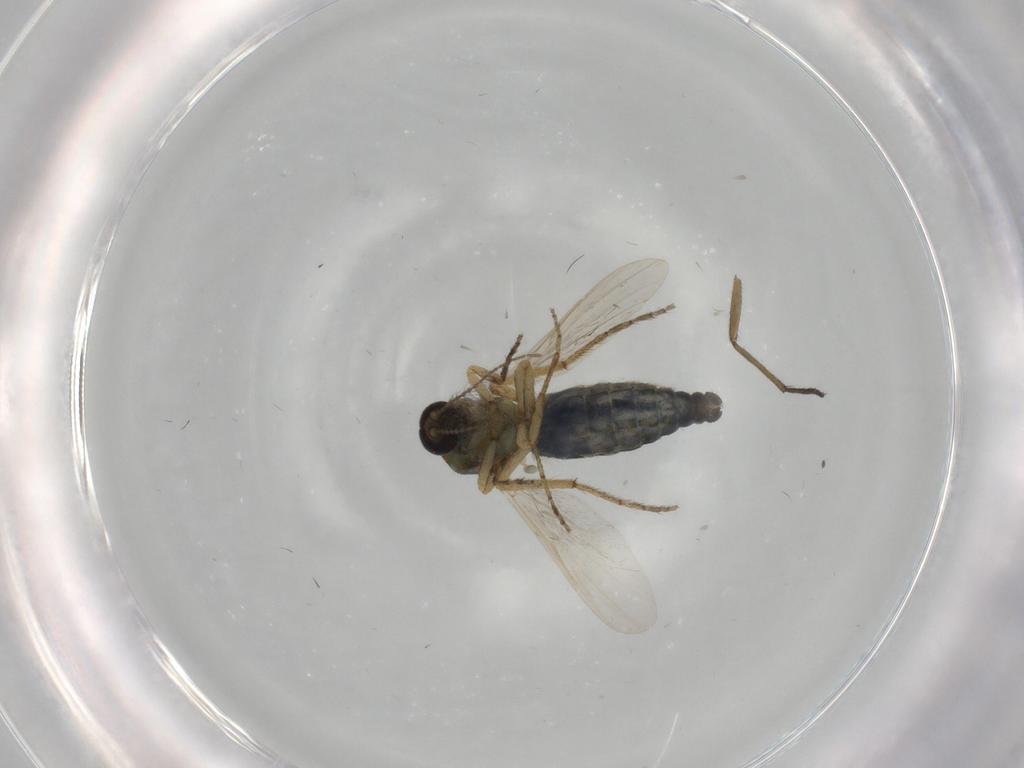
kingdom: Animalia
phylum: Arthropoda
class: Insecta
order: Diptera
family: Ceratopogonidae
